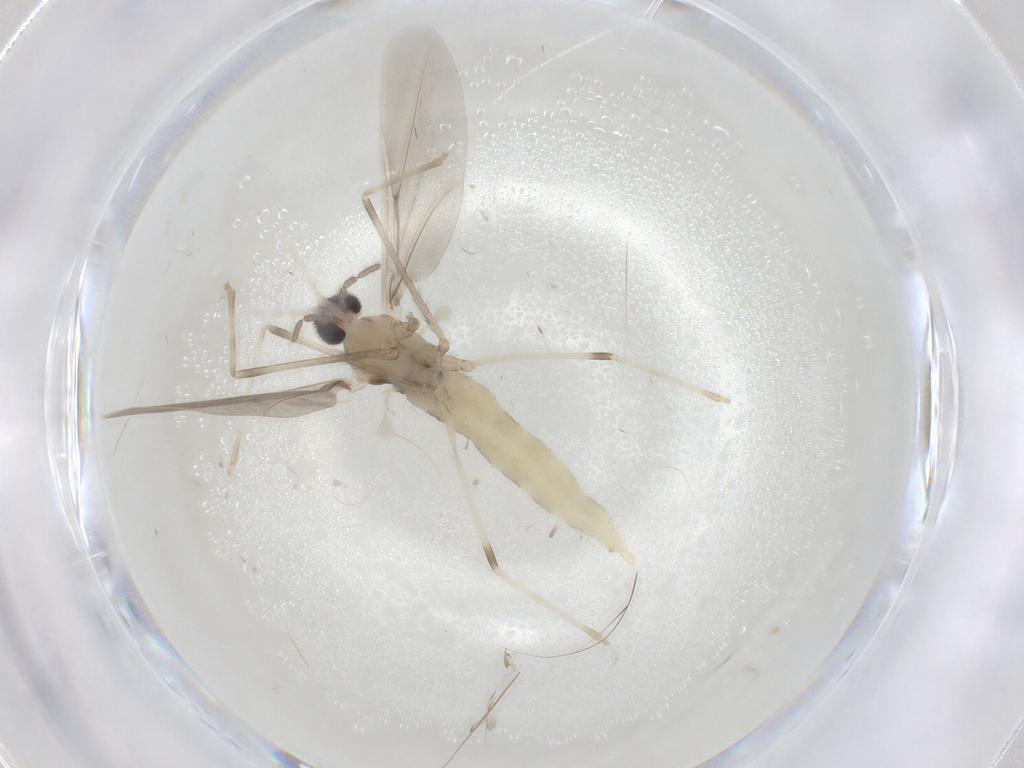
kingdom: Animalia
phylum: Arthropoda
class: Insecta
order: Diptera
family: Cecidomyiidae
